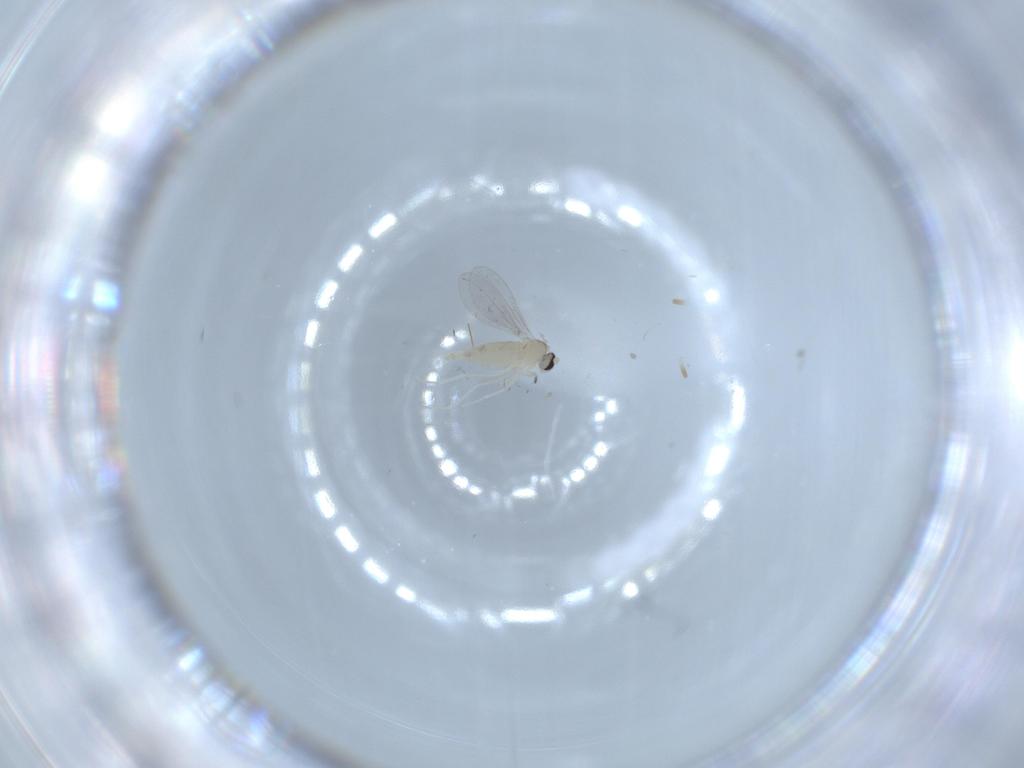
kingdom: Animalia
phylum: Arthropoda
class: Insecta
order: Diptera
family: Cecidomyiidae
